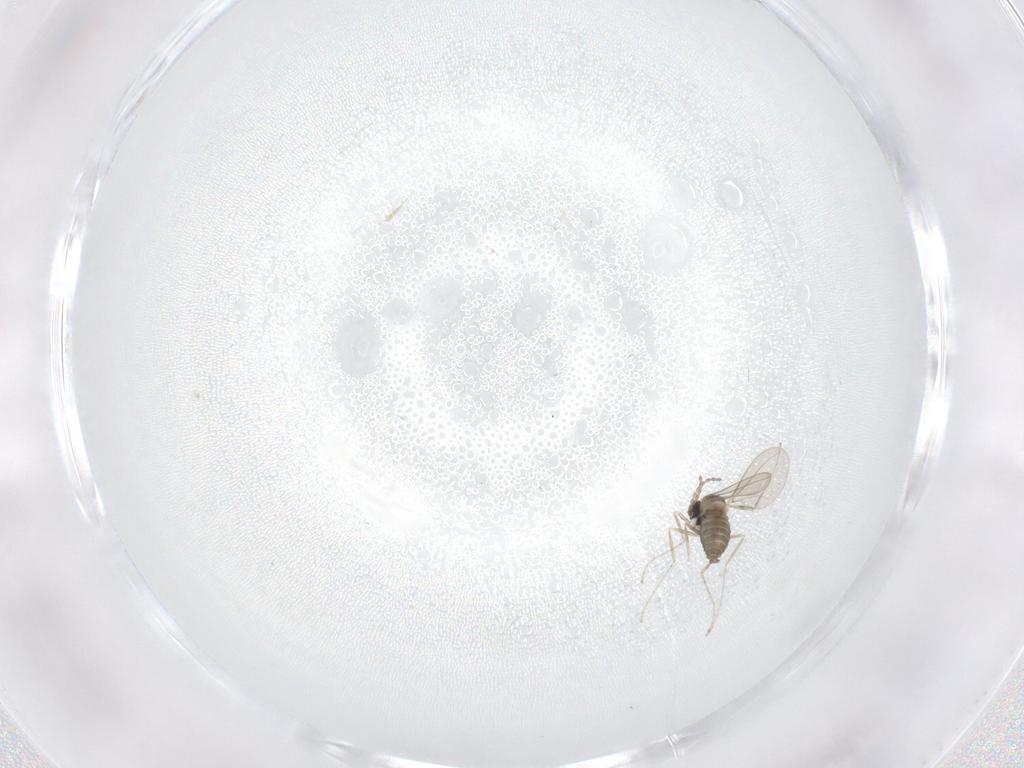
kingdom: Animalia
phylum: Arthropoda
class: Insecta
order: Diptera
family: Cecidomyiidae
